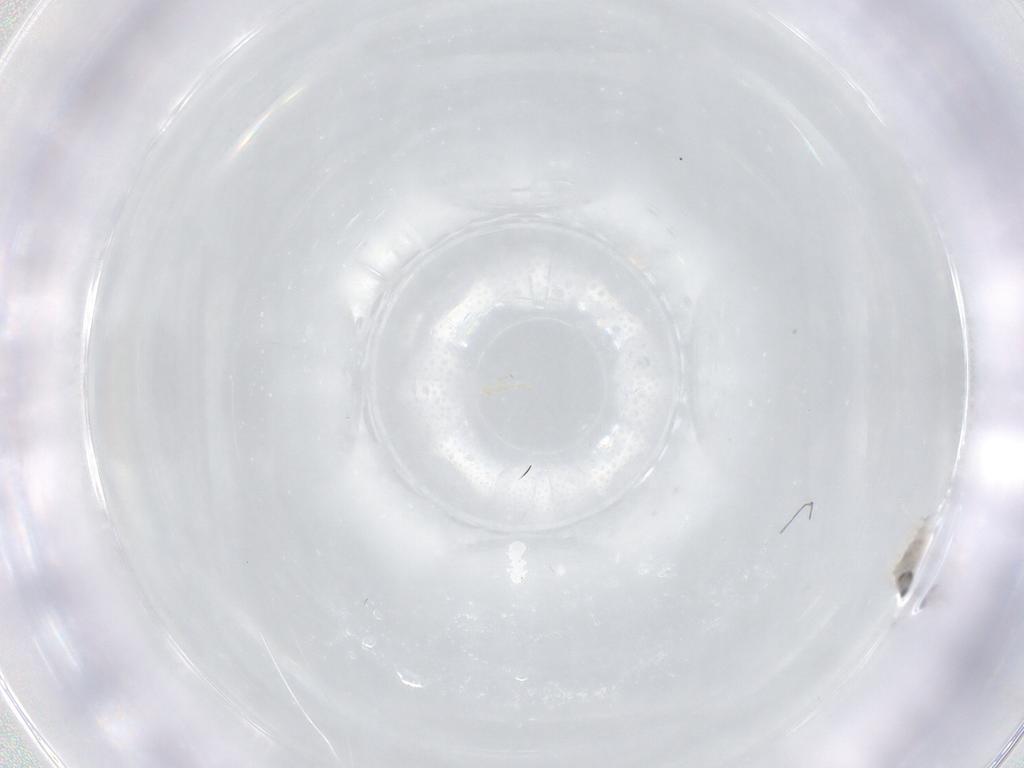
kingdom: Animalia
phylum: Arthropoda
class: Insecta
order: Diptera
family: Cecidomyiidae
